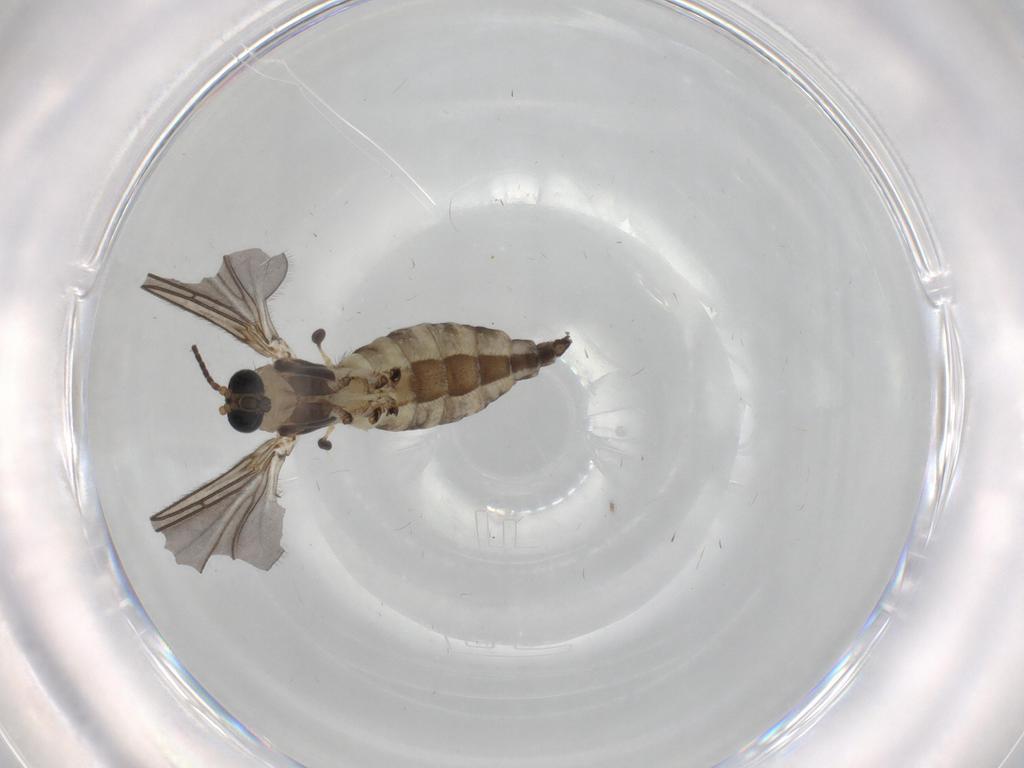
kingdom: Animalia
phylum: Arthropoda
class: Insecta
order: Diptera
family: Sciaridae
